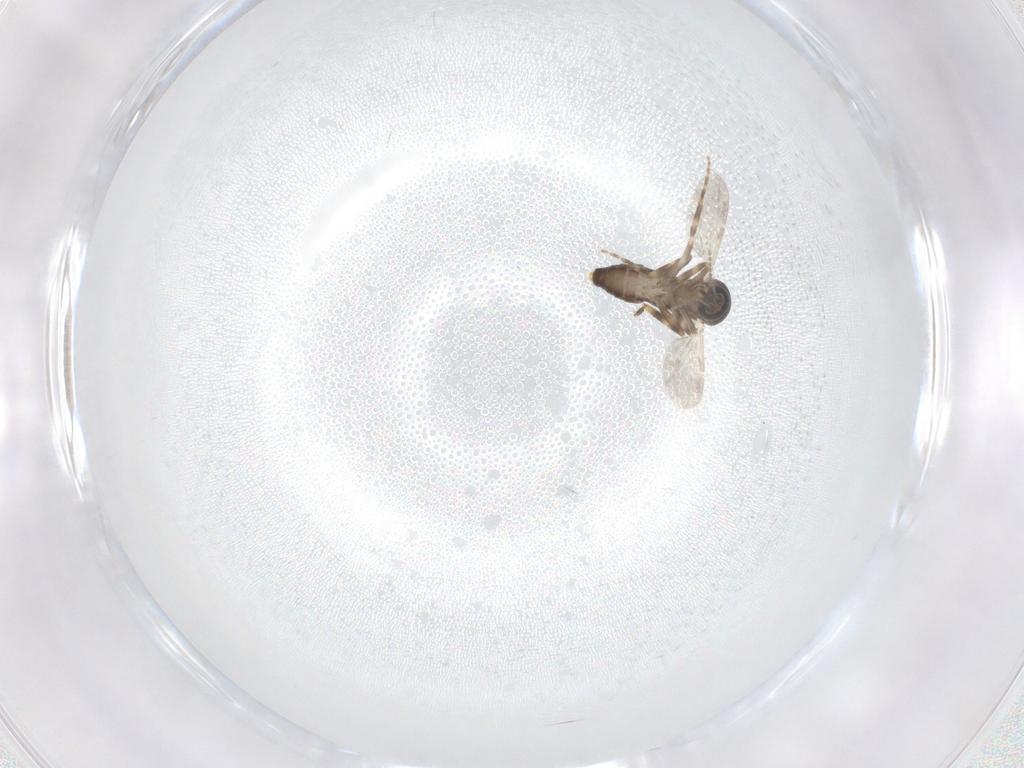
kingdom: Animalia
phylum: Arthropoda
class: Insecta
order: Diptera
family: Ceratopogonidae
